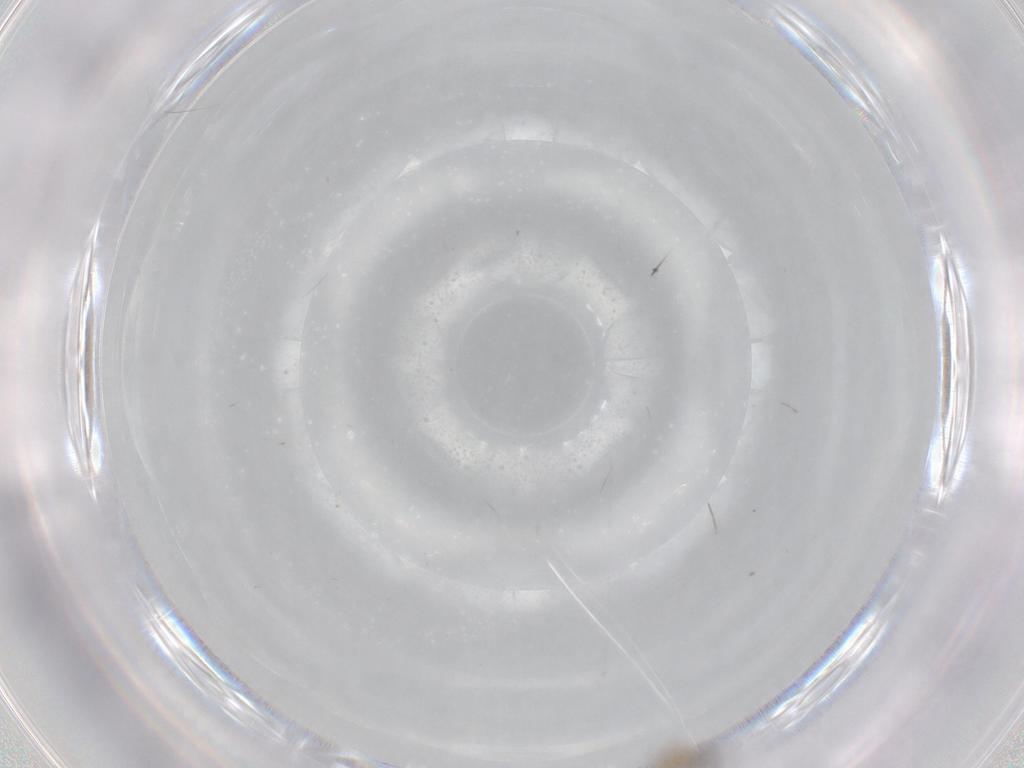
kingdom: Animalia
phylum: Arthropoda
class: Insecta
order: Diptera
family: Cecidomyiidae
